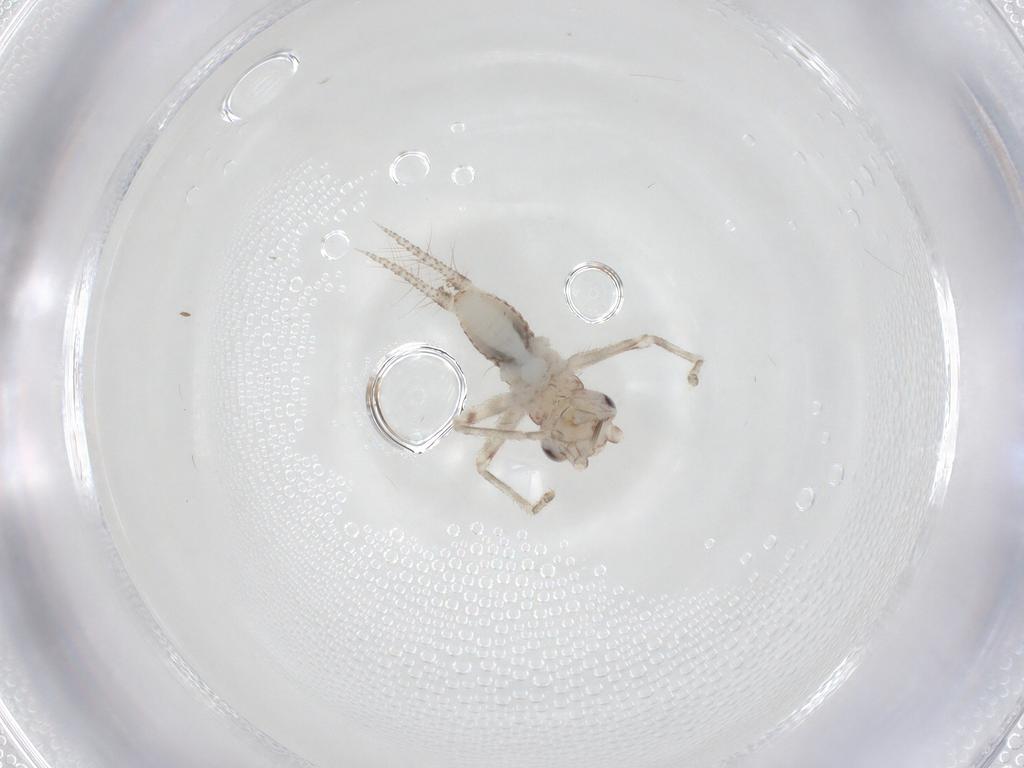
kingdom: Animalia
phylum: Arthropoda
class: Insecta
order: Orthoptera
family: Trigonidiidae
